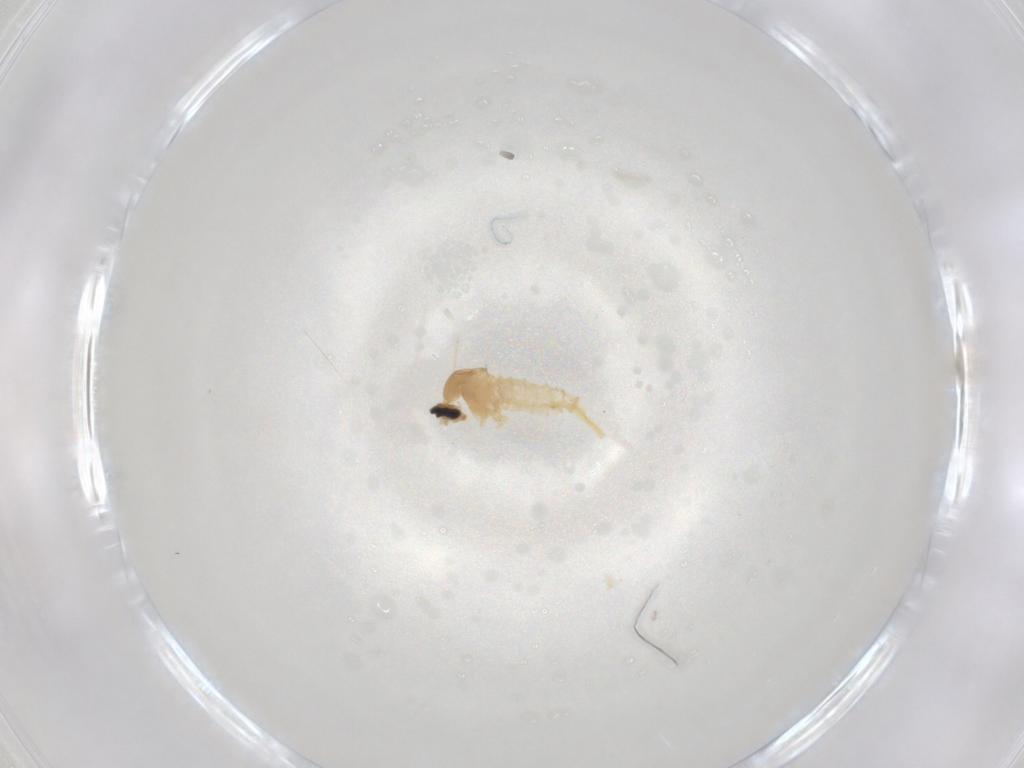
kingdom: Animalia
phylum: Arthropoda
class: Insecta
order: Diptera
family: Cecidomyiidae
